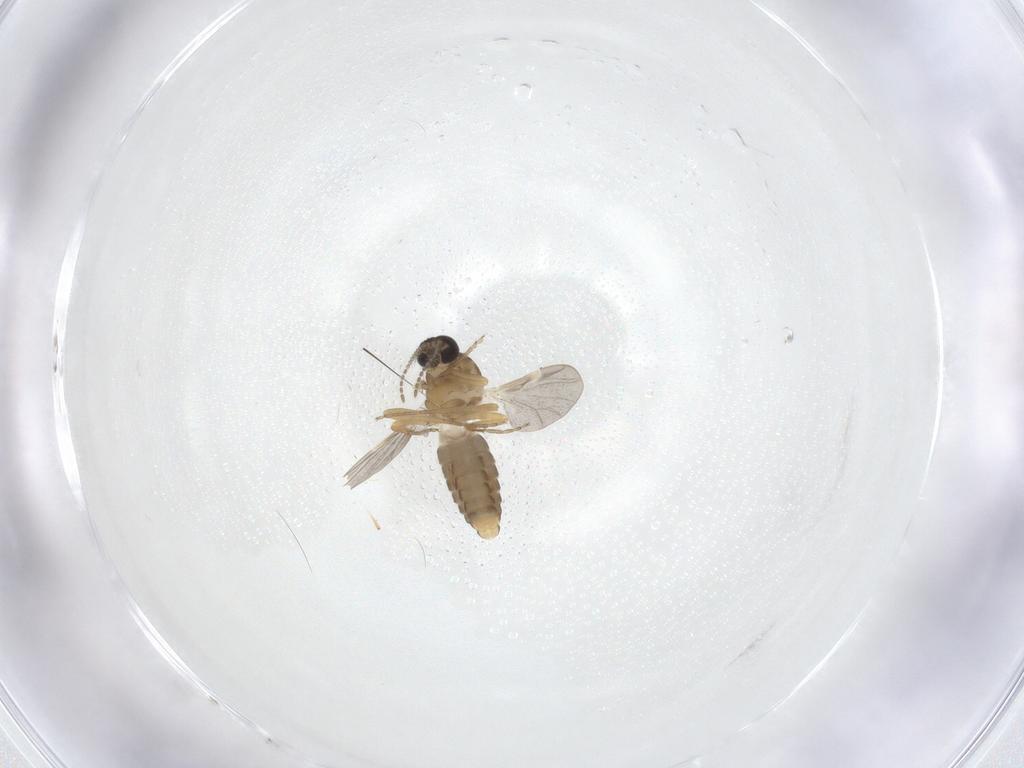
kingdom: Animalia
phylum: Arthropoda
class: Insecta
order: Diptera
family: Ceratopogonidae
